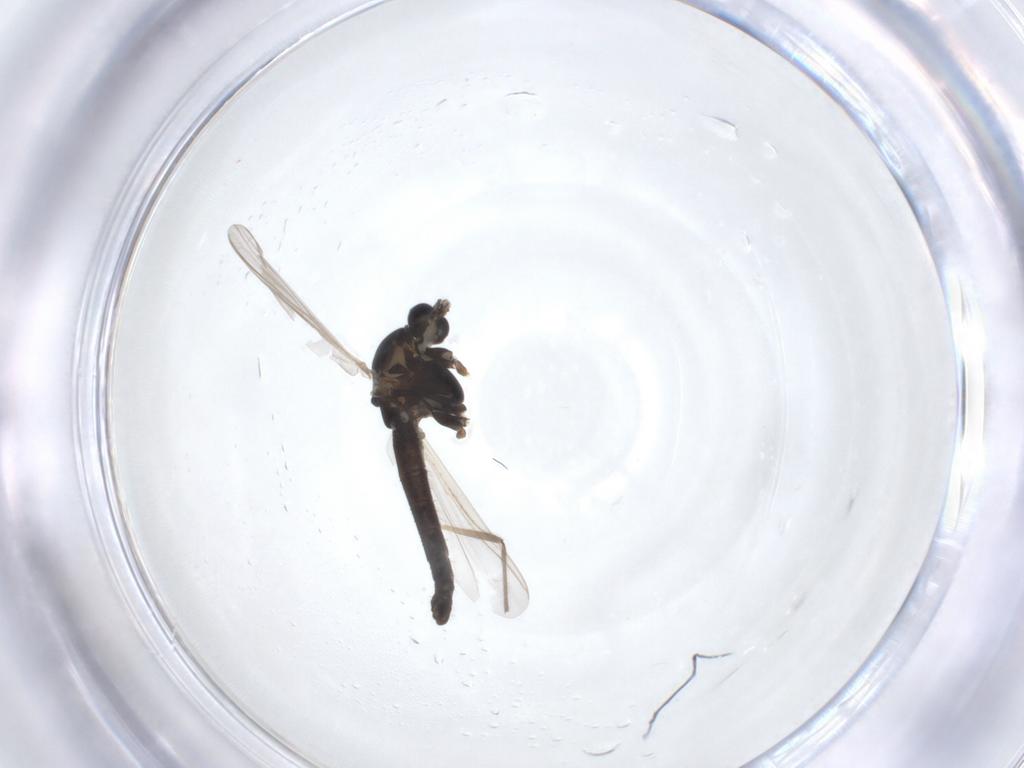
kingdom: Animalia
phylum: Arthropoda
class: Insecta
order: Diptera
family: Chironomidae
